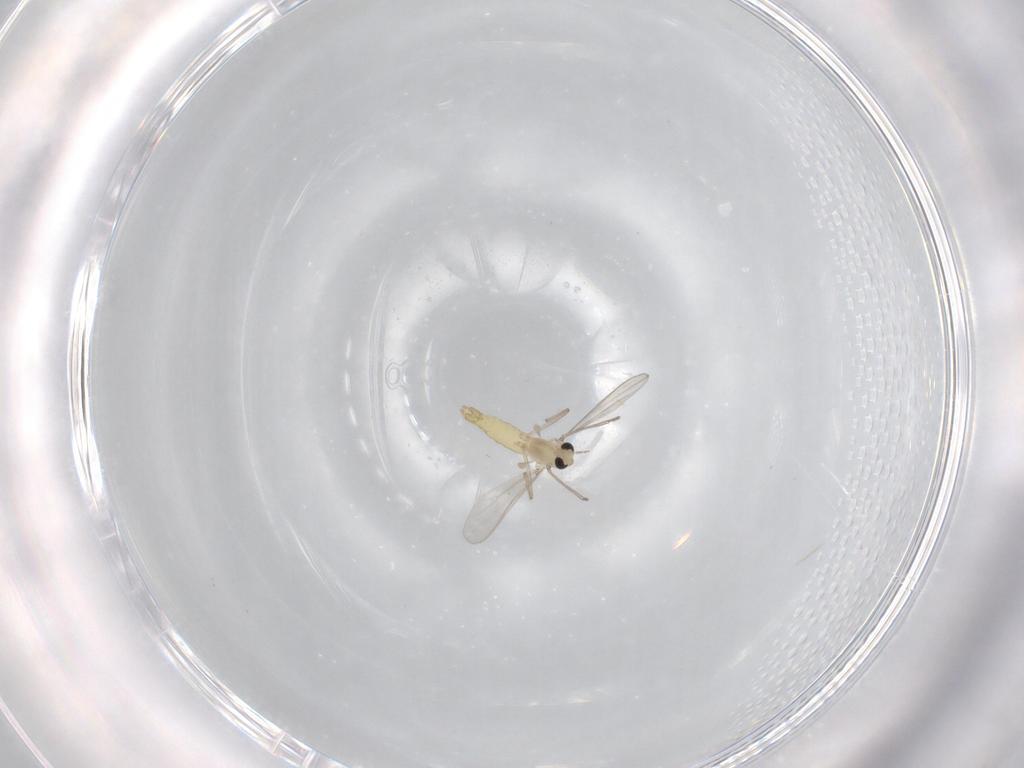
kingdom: Animalia
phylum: Arthropoda
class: Insecta
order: Diptera
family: Chironomidae
